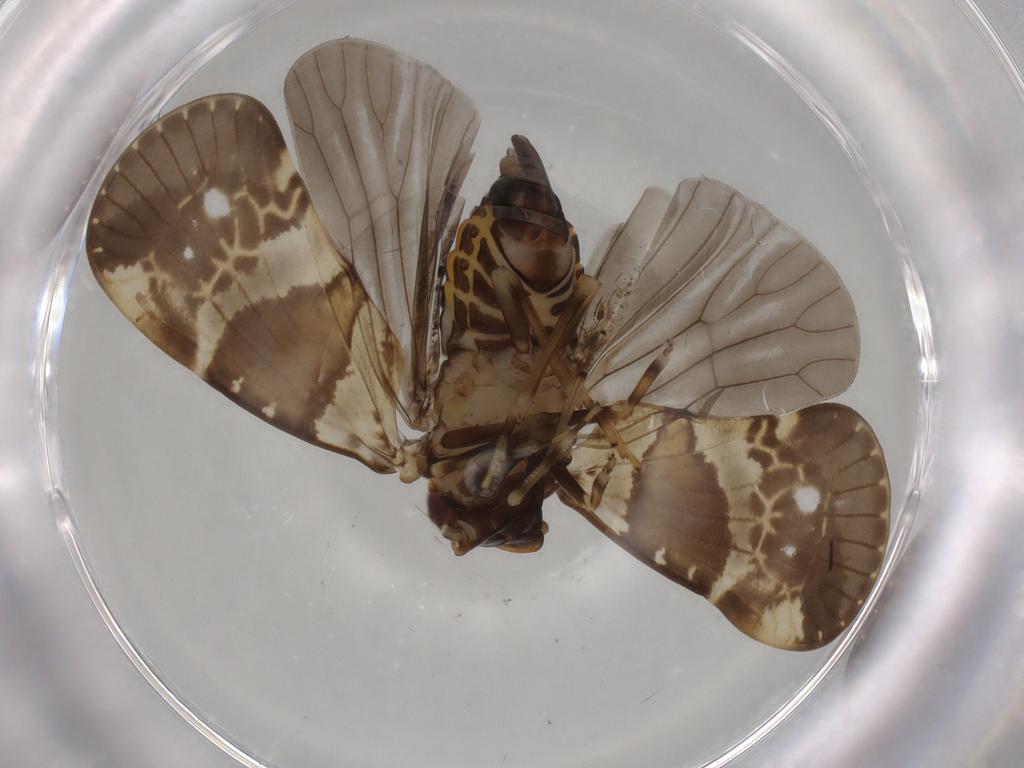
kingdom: Animalia
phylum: Arthropoda
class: Insecta
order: Hemiptera
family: Cixiidae
